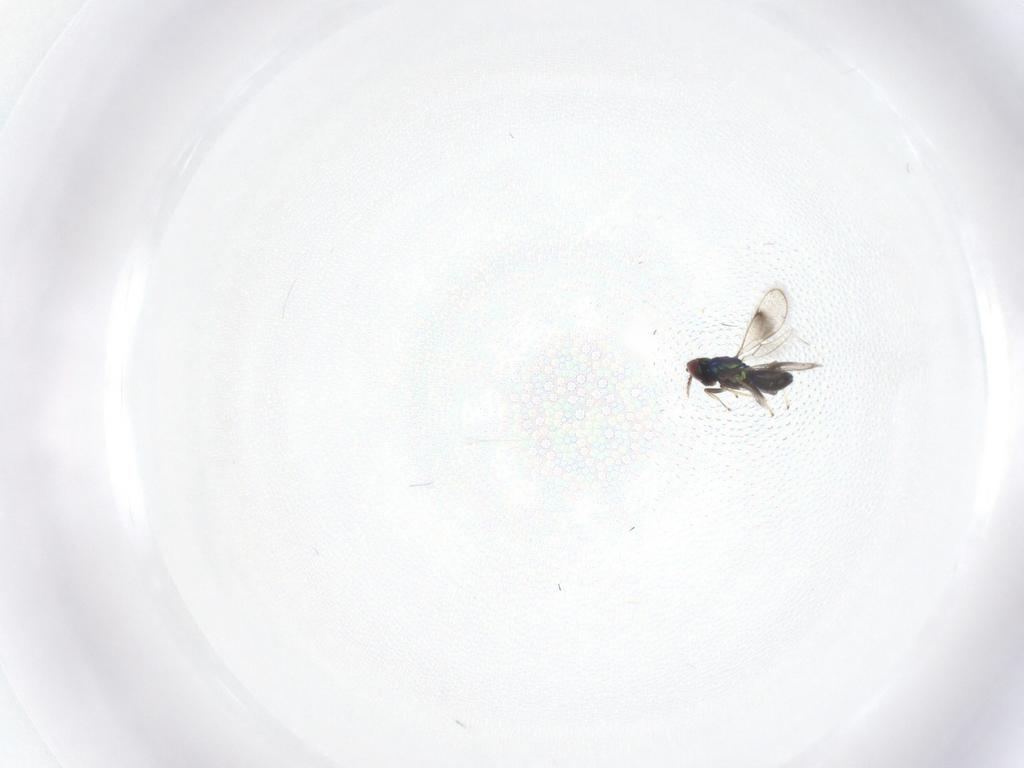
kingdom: Animalia
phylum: Arthropoda
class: Insecta
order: Hymenoptera
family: Eulophidae
